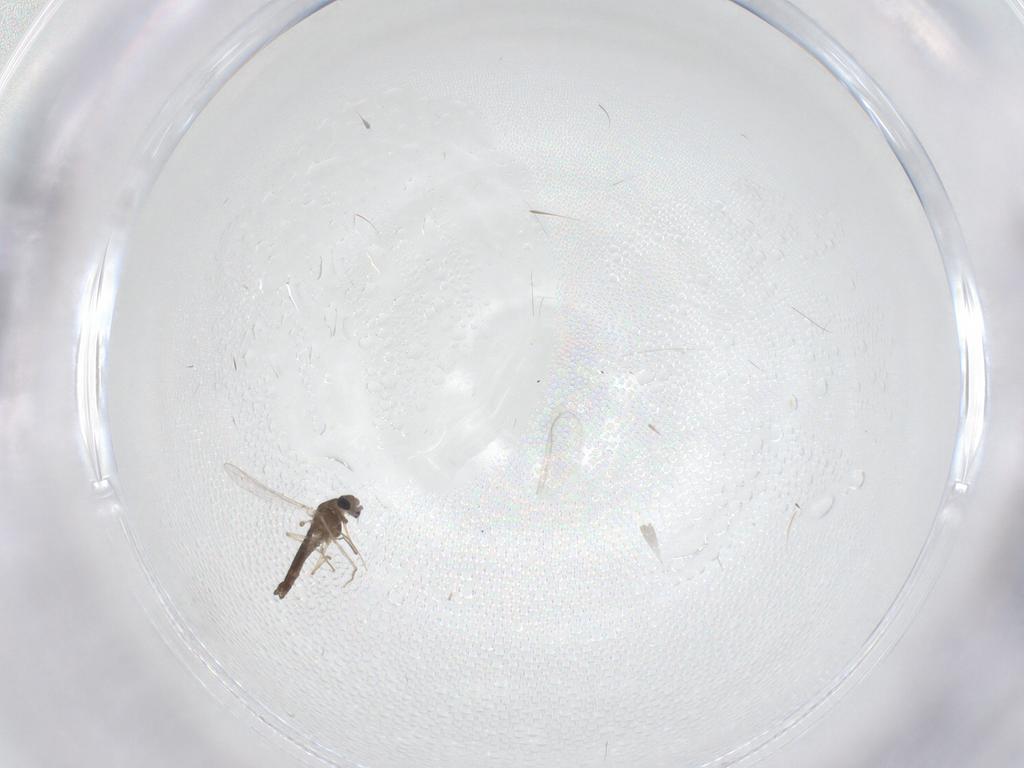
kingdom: Animalia
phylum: Arthropoda
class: Insecta
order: Diptera
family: Chironomidae
